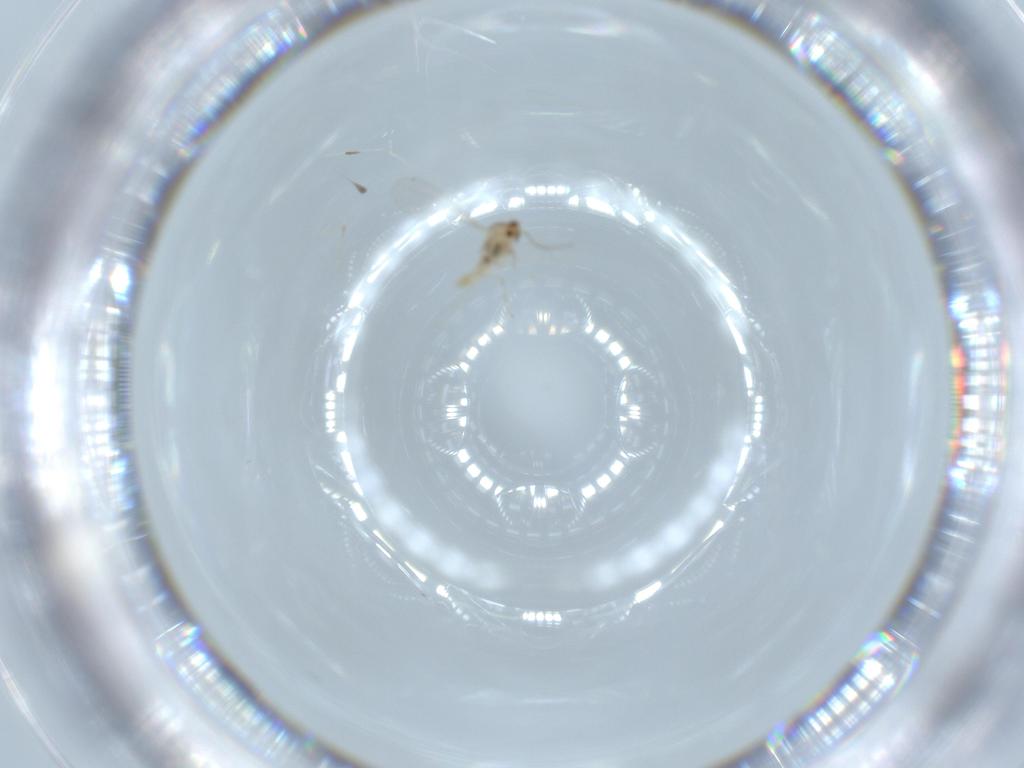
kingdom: Animalia
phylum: Arthropoda
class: Insecta
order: Diptera
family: Cecidomyiidae
